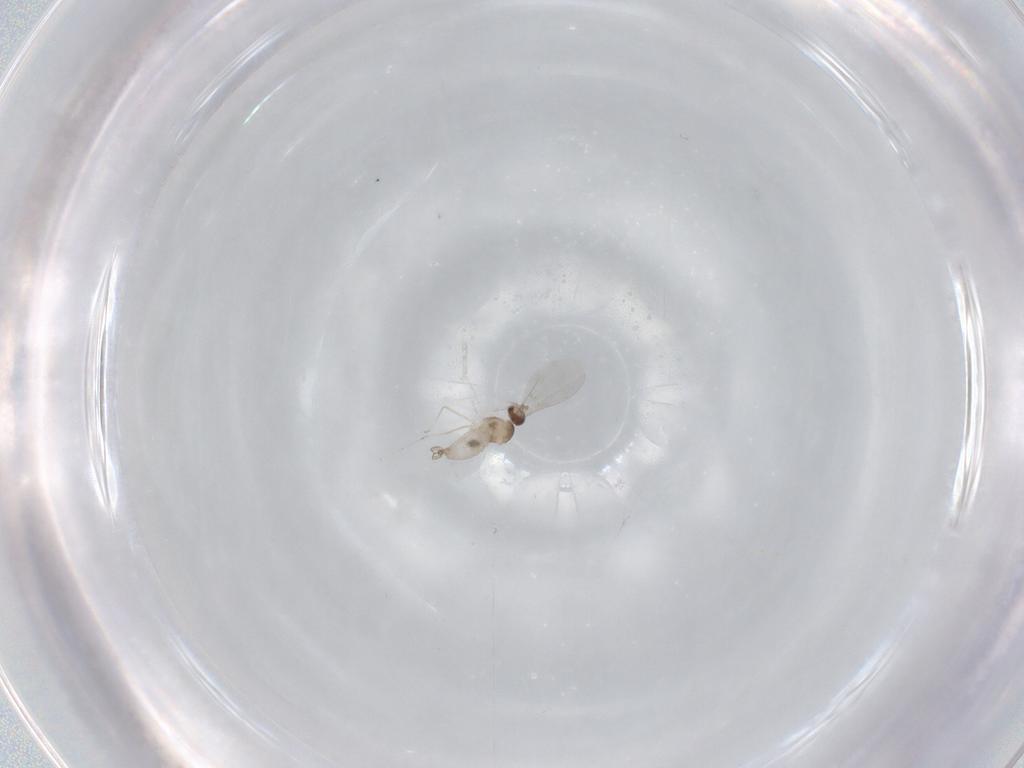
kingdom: Animalia
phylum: Arthropoda
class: Insecta
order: Diptera
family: Cecidomyiidae
